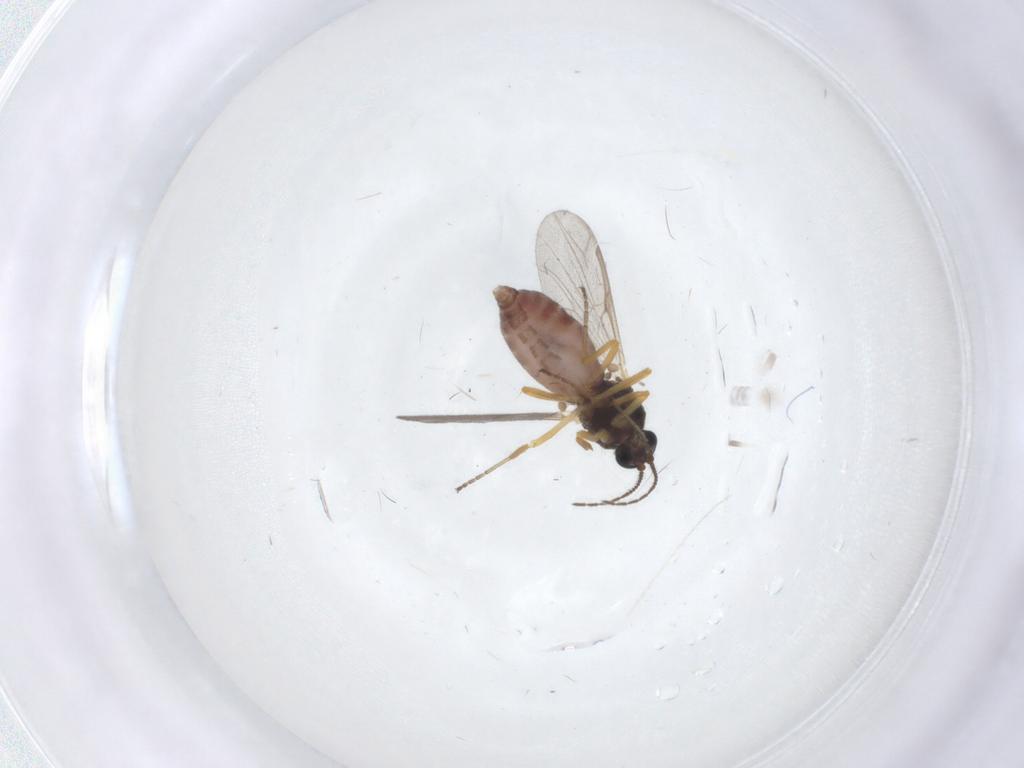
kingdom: Animalia
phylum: Arthropoda
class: Insecta
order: Diptera
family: Ceratopogonidae
